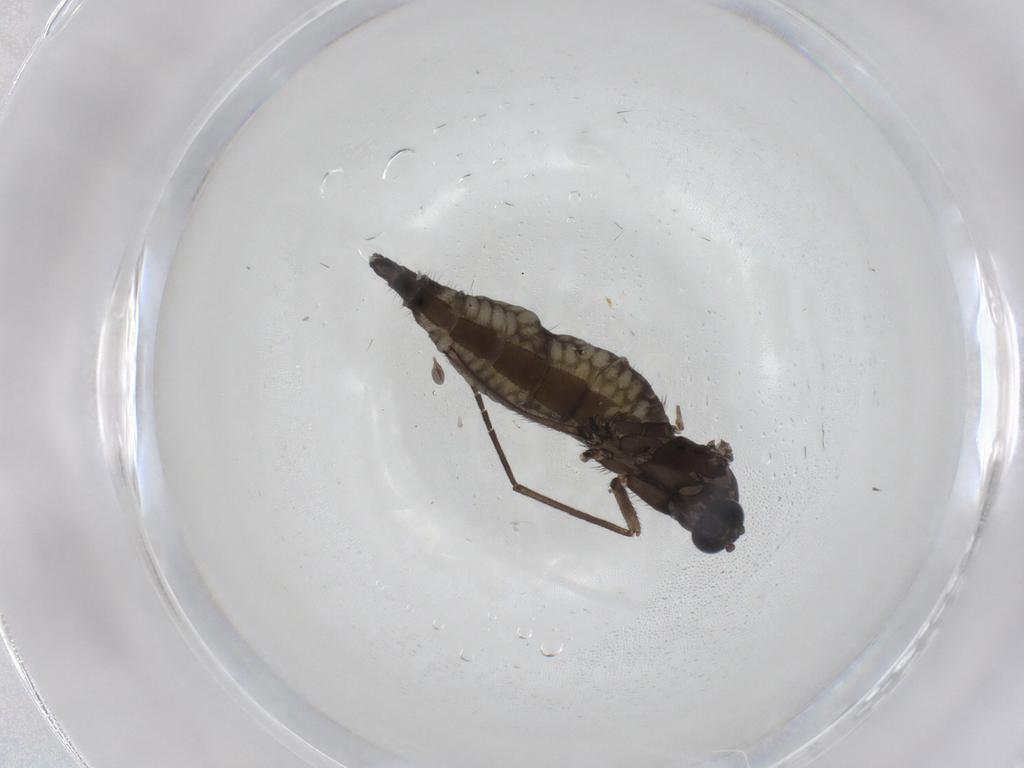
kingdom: Animalia
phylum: Arthropoda
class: Insecta
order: Diptera
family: Sciaridae
